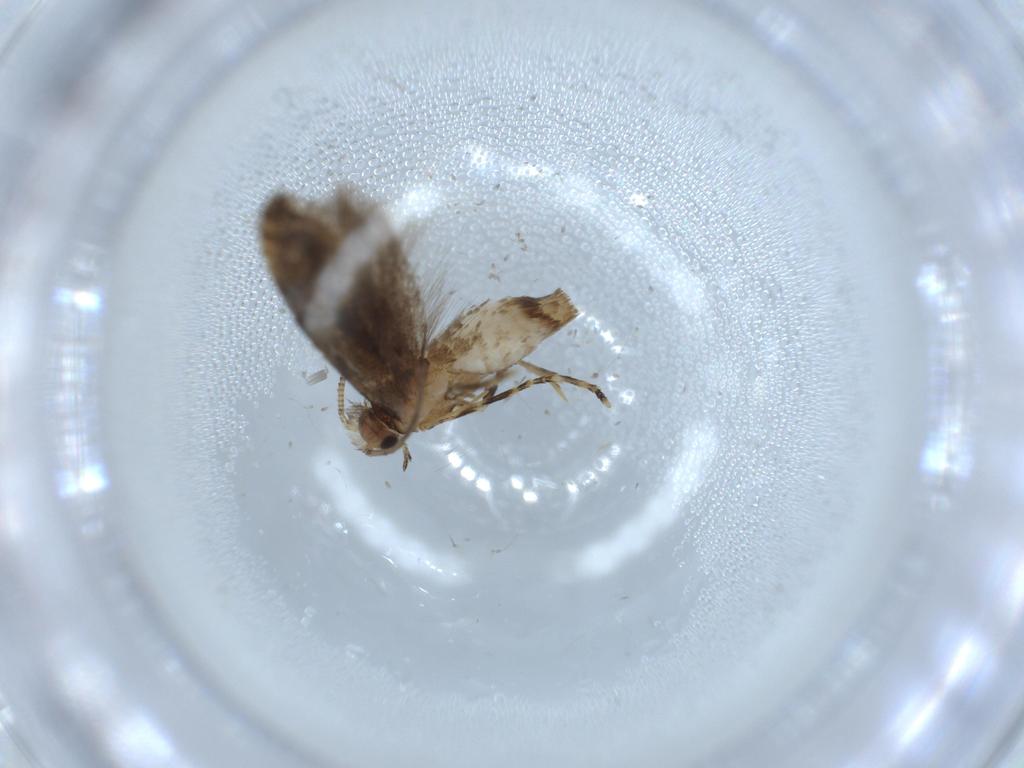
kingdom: Animalia
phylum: Arthropoda
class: Insecta
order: Lepidoptera
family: Tineidae
